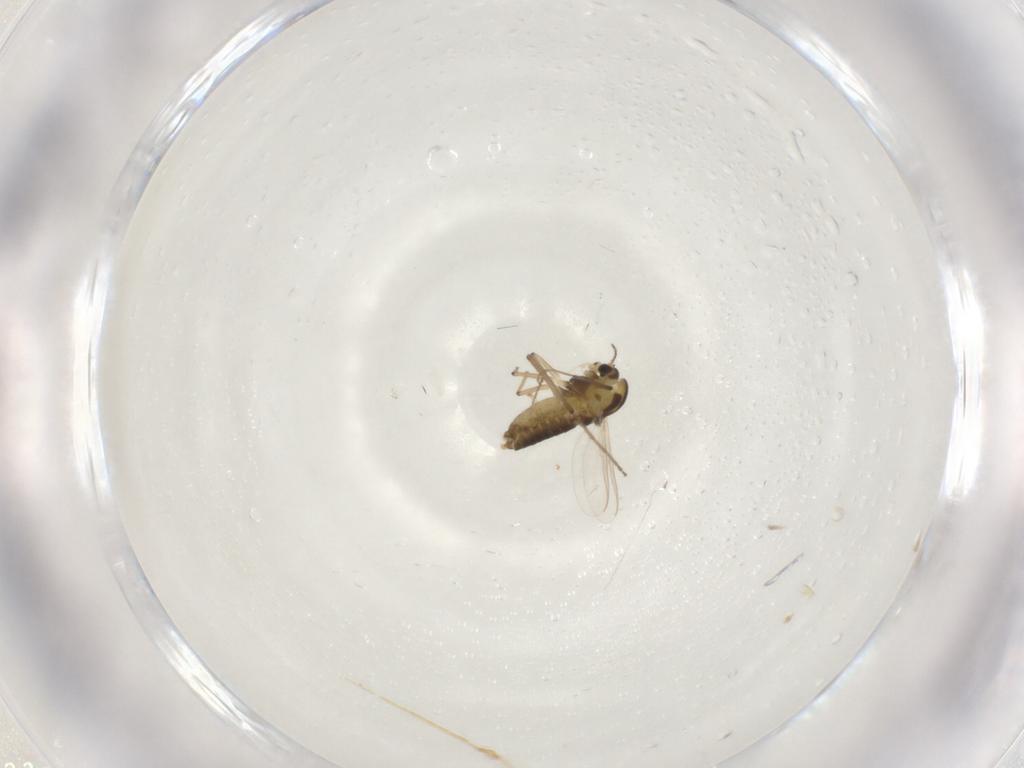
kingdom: Animalia
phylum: Arthropoda
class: Insecta
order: Diptera
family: Chironomidae
